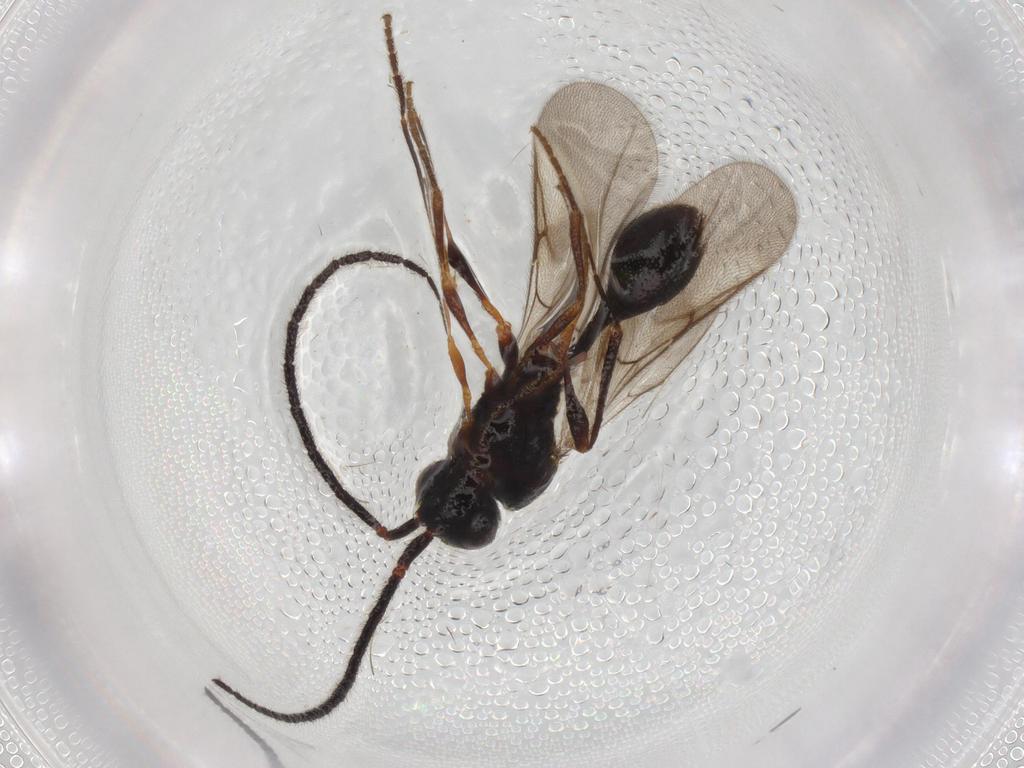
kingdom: Animalia
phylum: Arthropoda
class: Insecta
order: Hymenoptera
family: Diapriidae
